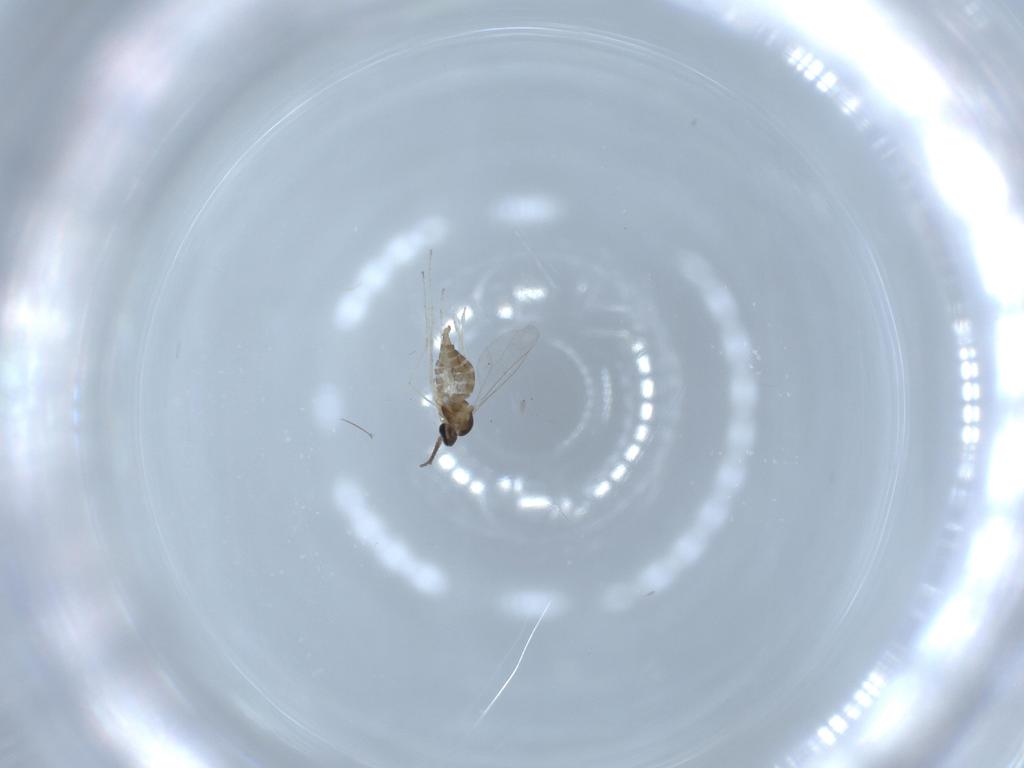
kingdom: Animalia
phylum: Arthropoda
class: Insecta
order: Diptera
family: Cecidomyiidae
